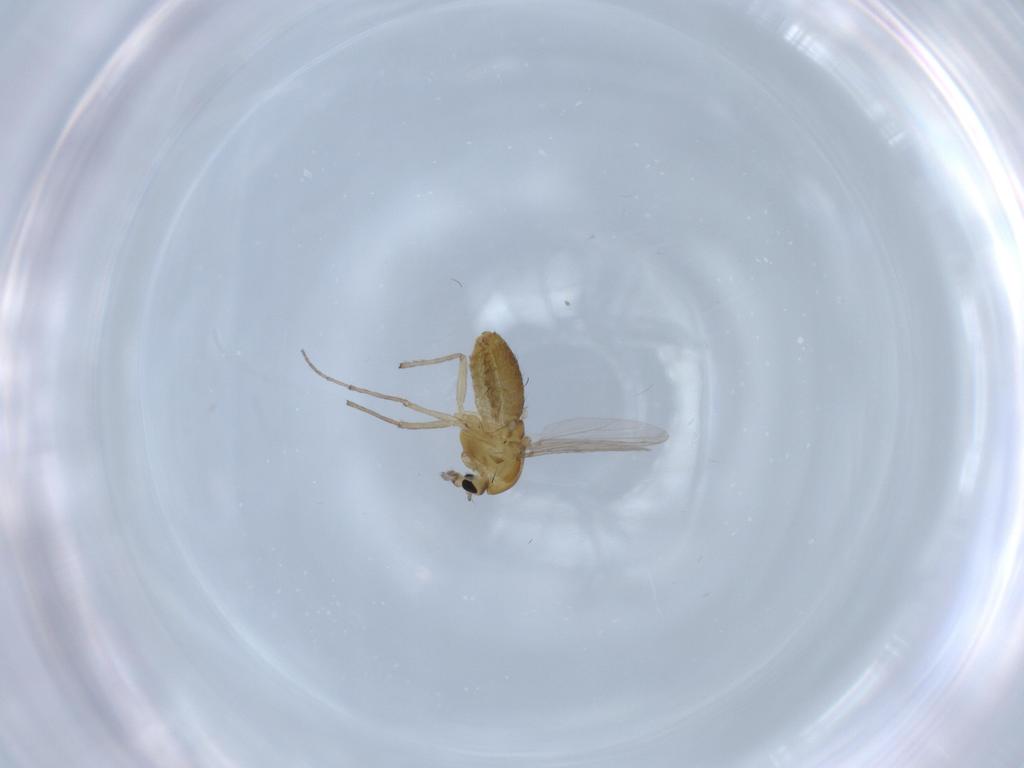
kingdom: Animalia
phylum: Arthropoda
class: Insecta
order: Diptera
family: Chironomidae
